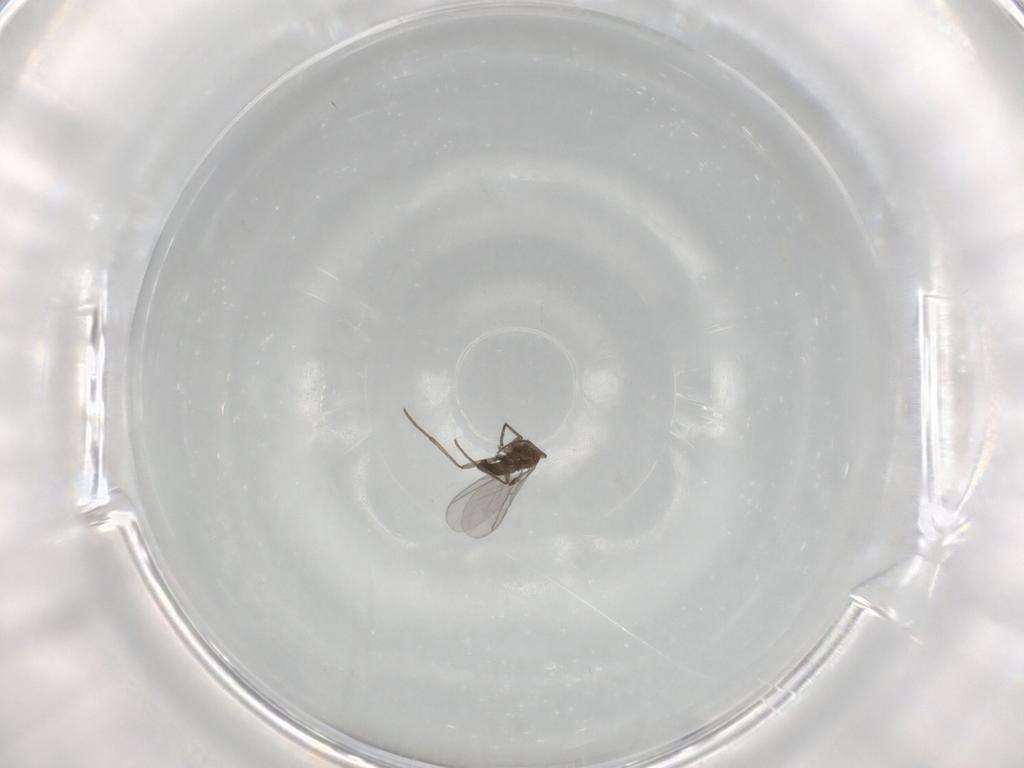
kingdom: Animalia
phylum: Arthropoda
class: Insecta
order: Diptera
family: Sciaridae
